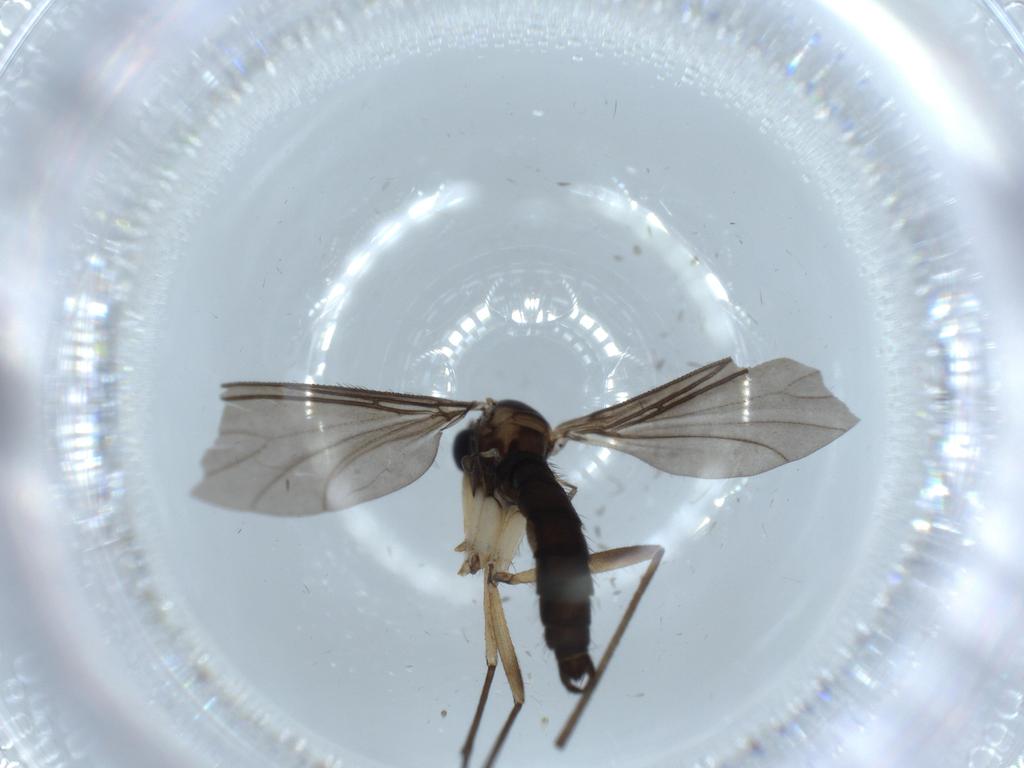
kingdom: Animalia
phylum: Arthropoda
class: Insecta
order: Diptera
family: Sciaridae
